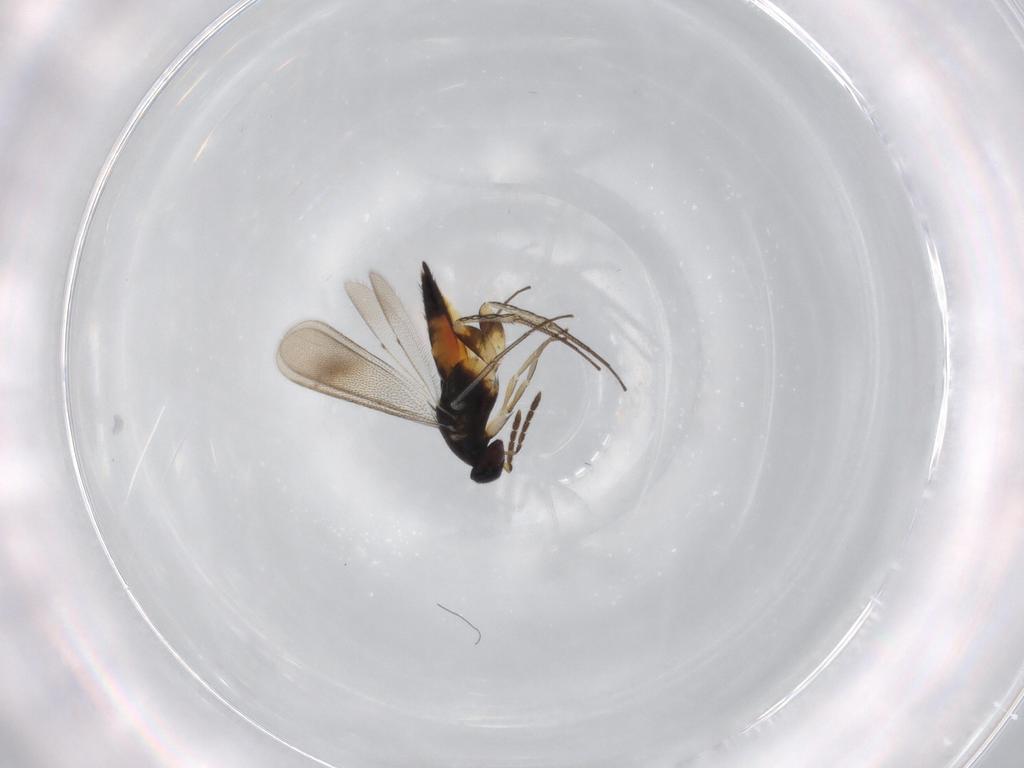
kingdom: Animalia
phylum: Arthropoda
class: Insecta
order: Hymenoptera
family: Eulophidae
